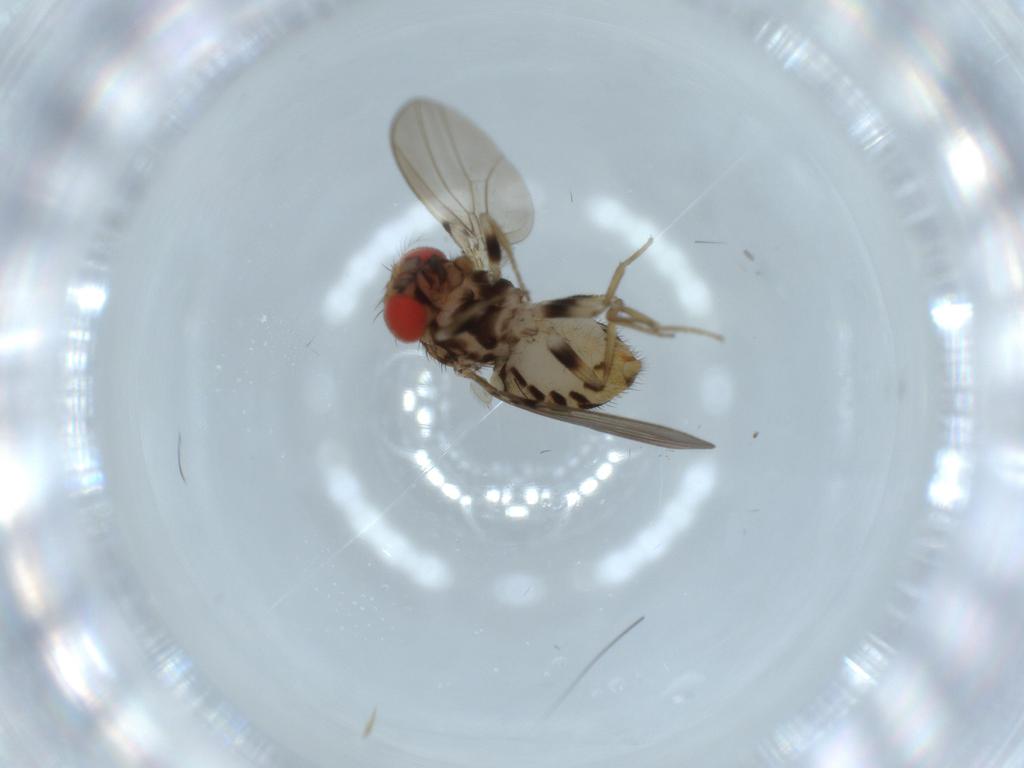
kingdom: Animalia
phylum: Arthropoda
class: Insecta
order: Diptera
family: Drosophilidae
